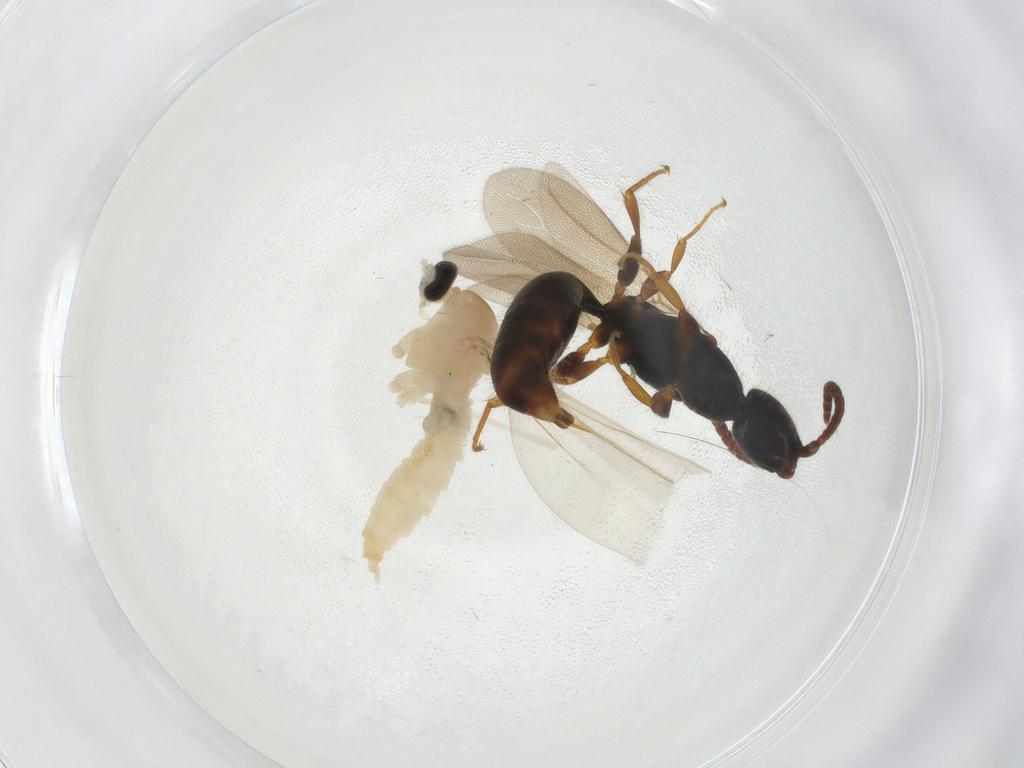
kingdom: Animalia
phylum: Arthropoda
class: Insecta
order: Hymenoptera
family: Bethylidae
